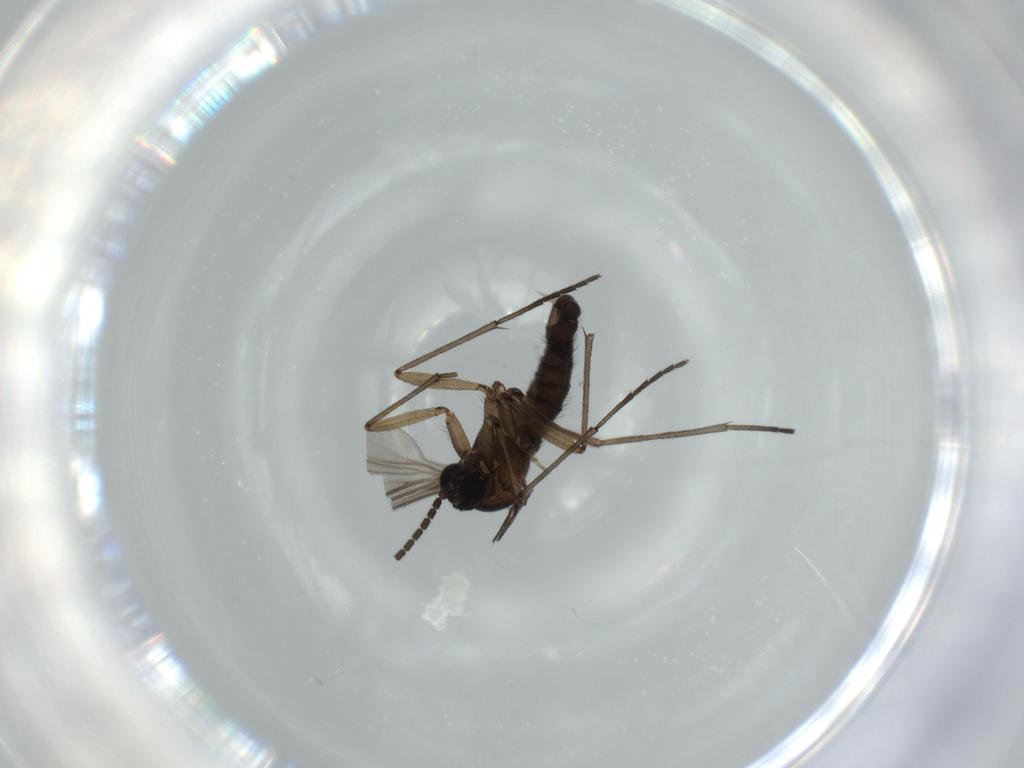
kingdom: Animalia
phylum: Arthropoda
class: Insecta
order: Diptera
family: Sciaridae
